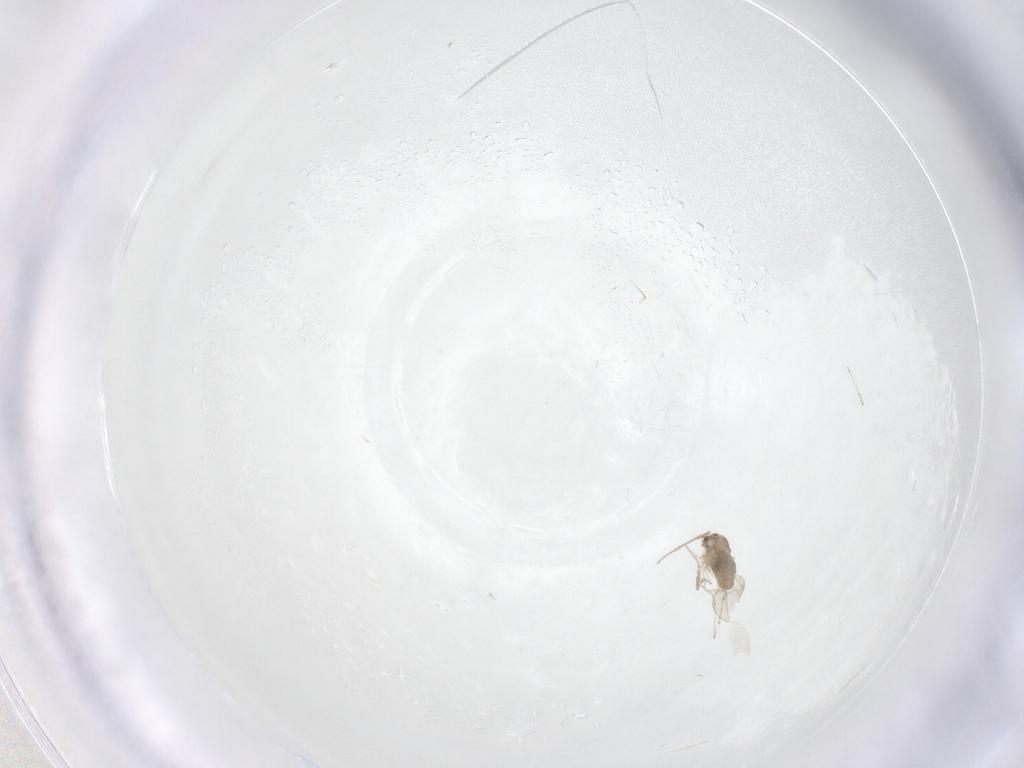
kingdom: Animalia
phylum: Arthropoda
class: Insecta
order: Diptera
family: Cecidomyiidae
